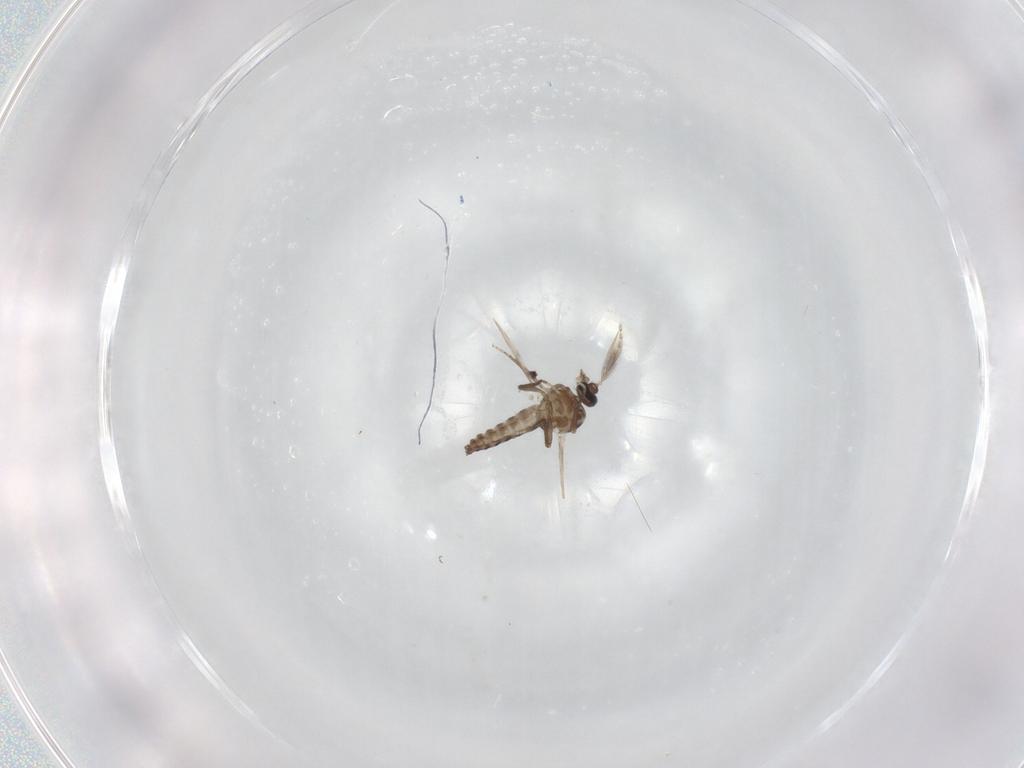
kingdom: Animalia
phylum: Arthropoda
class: Insecta
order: Diptera
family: Ceratopogonidae
